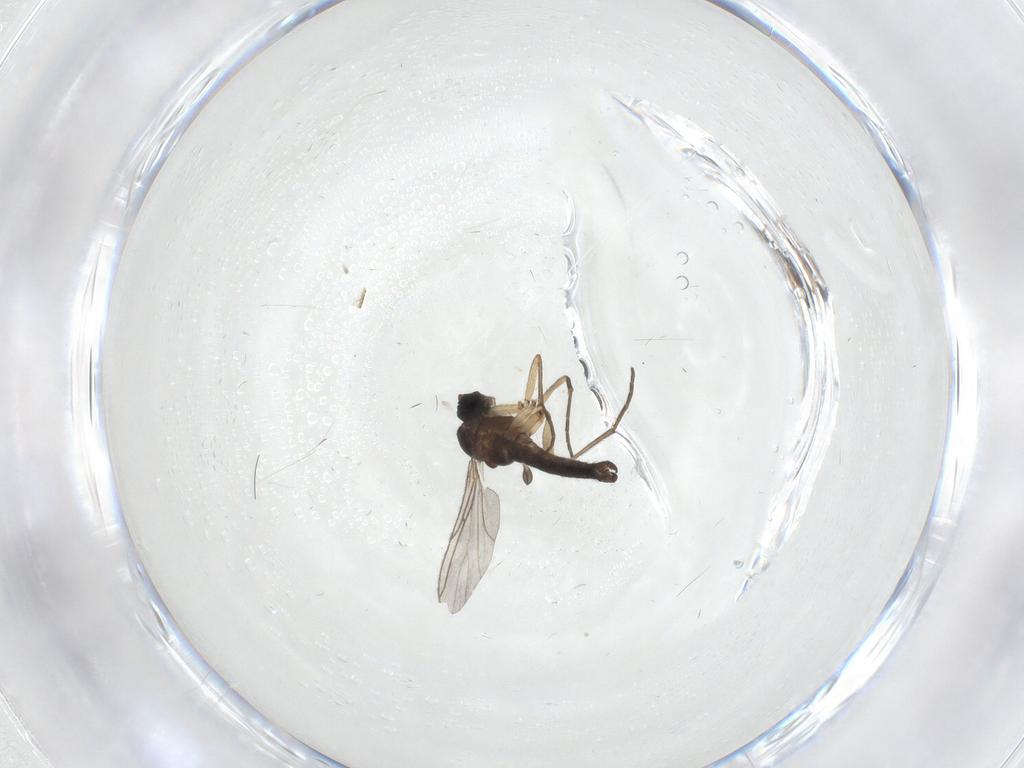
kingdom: Animalia
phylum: Arthropoda
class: Insecta
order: Diptera
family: Sciaridae
